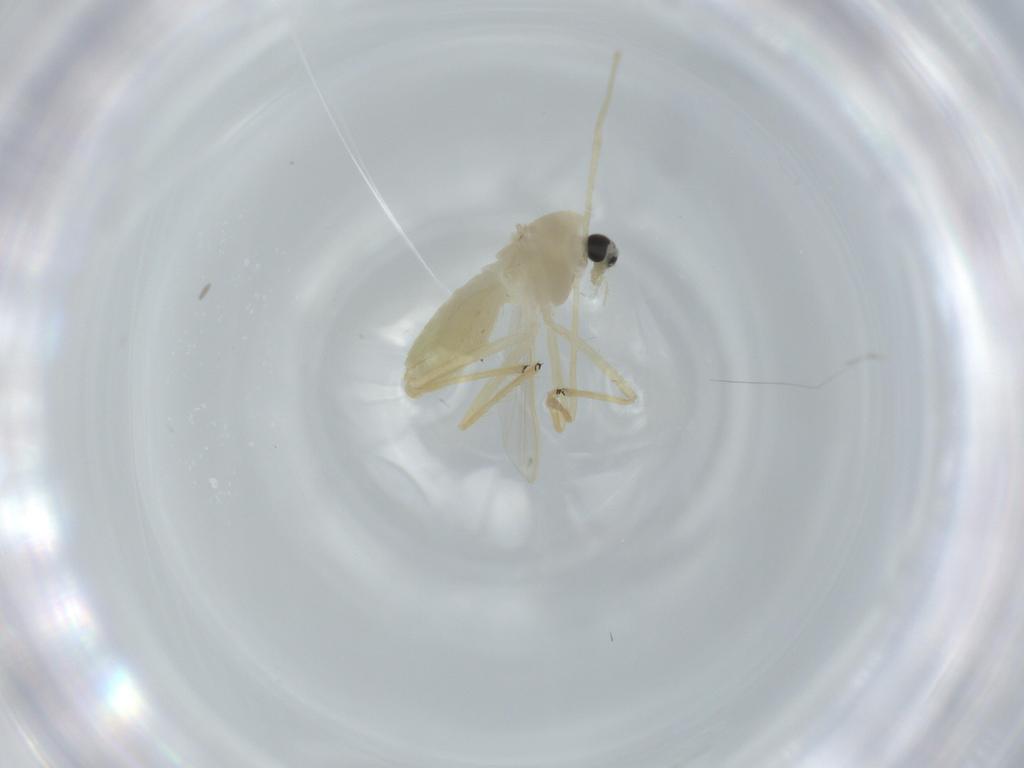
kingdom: Animalia
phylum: Arthropoda
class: Insecta
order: Diptera
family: Chironomidae
